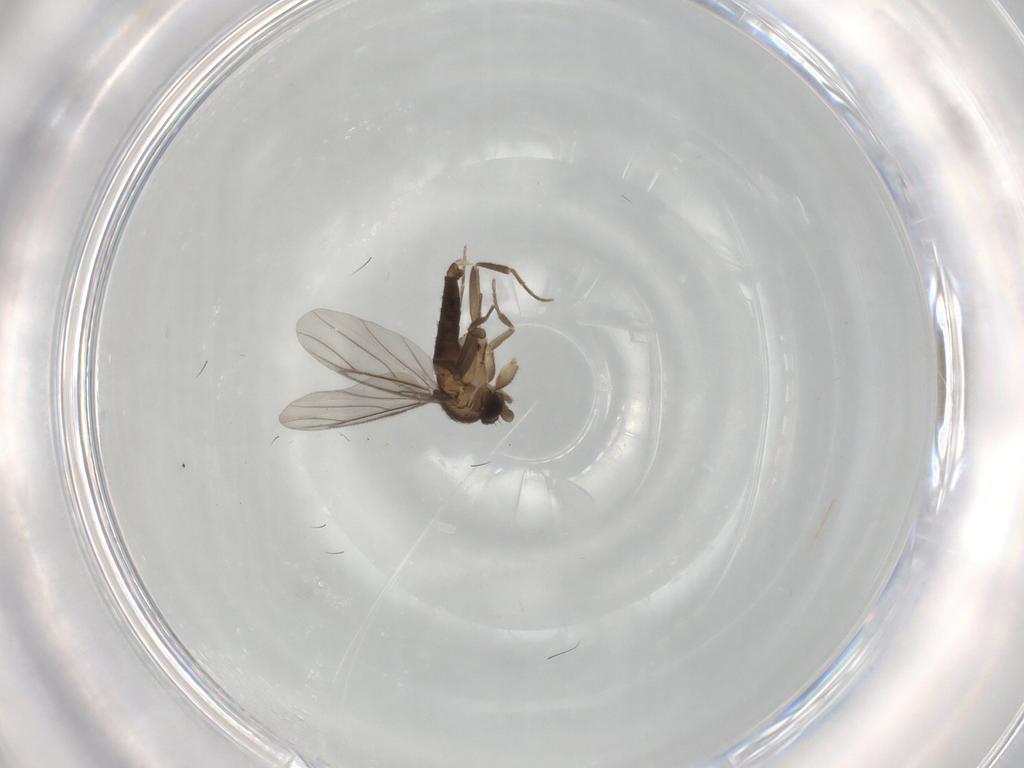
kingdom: Animalia
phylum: Arthropoda
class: Insecta
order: Diptera
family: Phoridae
